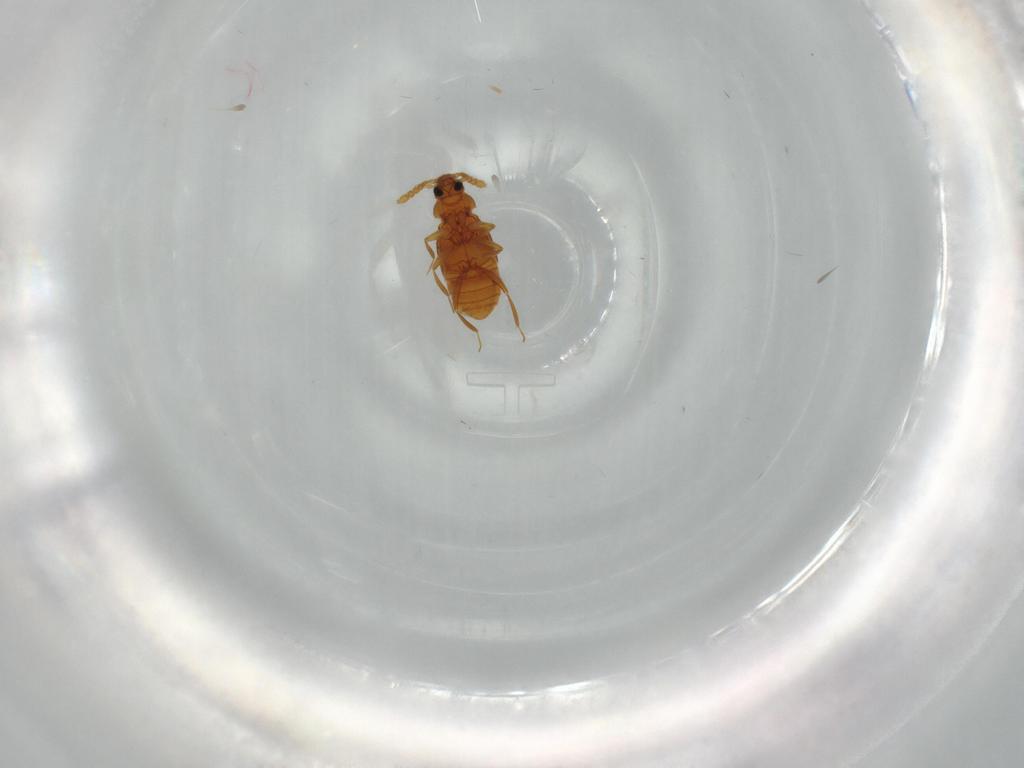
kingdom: Animalia
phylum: Arthropoda
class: Insecta
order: Coleoptera
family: Staphylinidae
